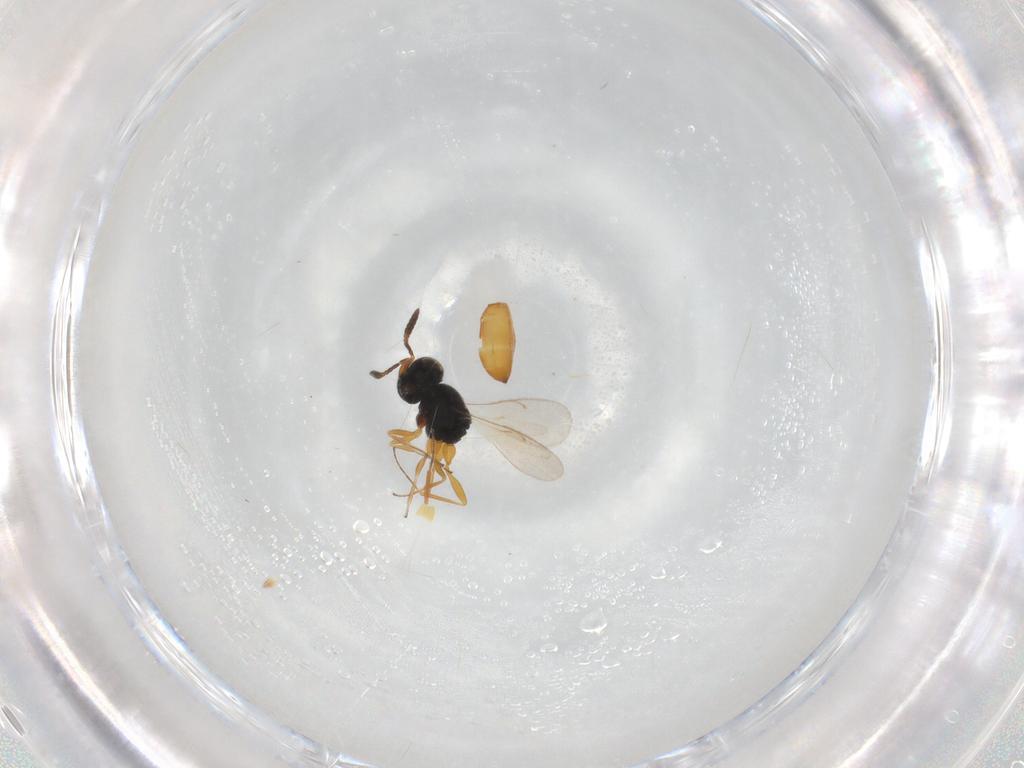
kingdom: Animalia
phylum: Arthropoda
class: Insecta
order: Hymenoptera
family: Scelionidae
